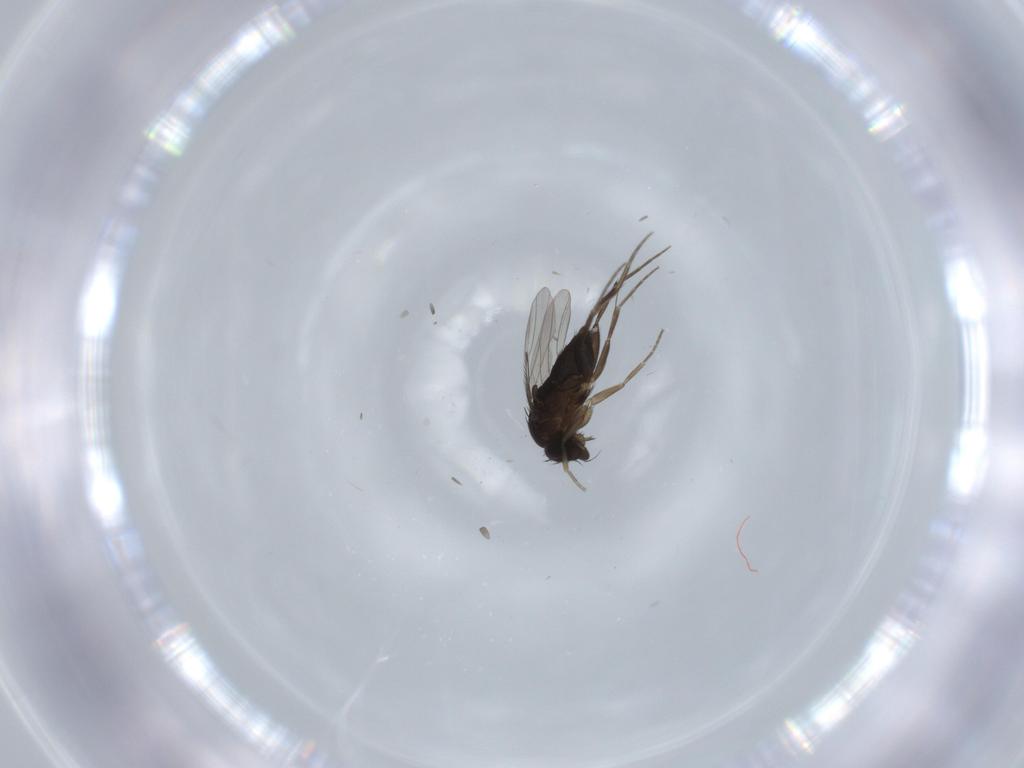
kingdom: Animalia
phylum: Arthropoda
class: Insecta
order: Diptera
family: Phoridae
